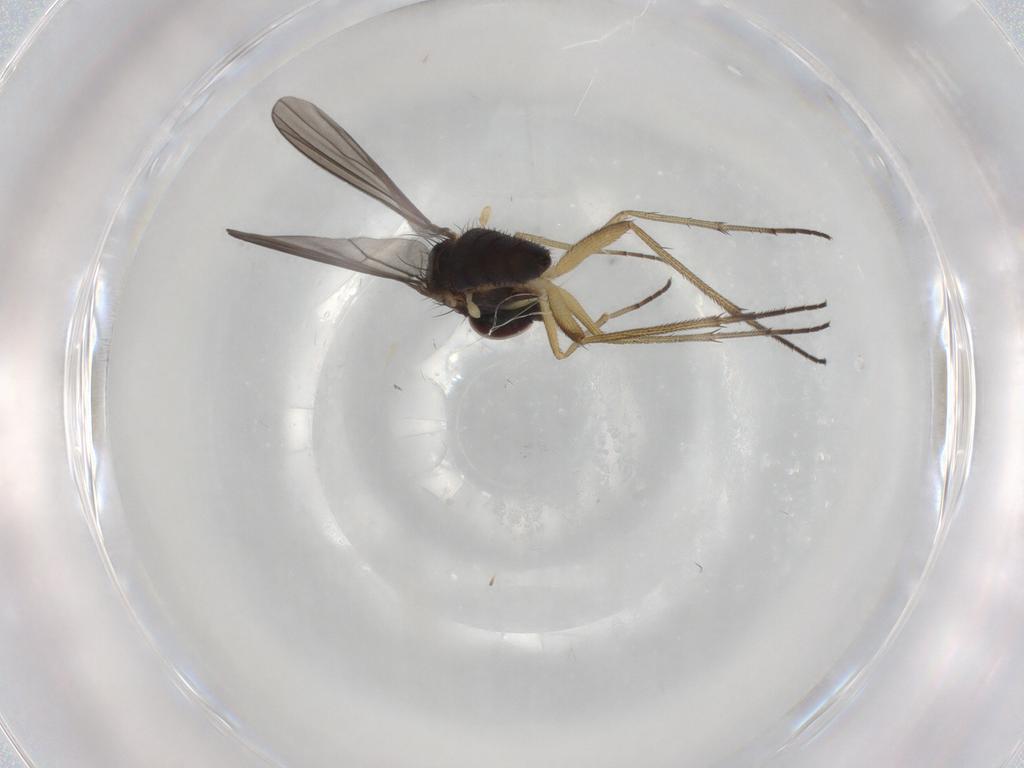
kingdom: Animalia
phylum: Arthropoda
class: Insecta
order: Diptera
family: Dolichopodidae
